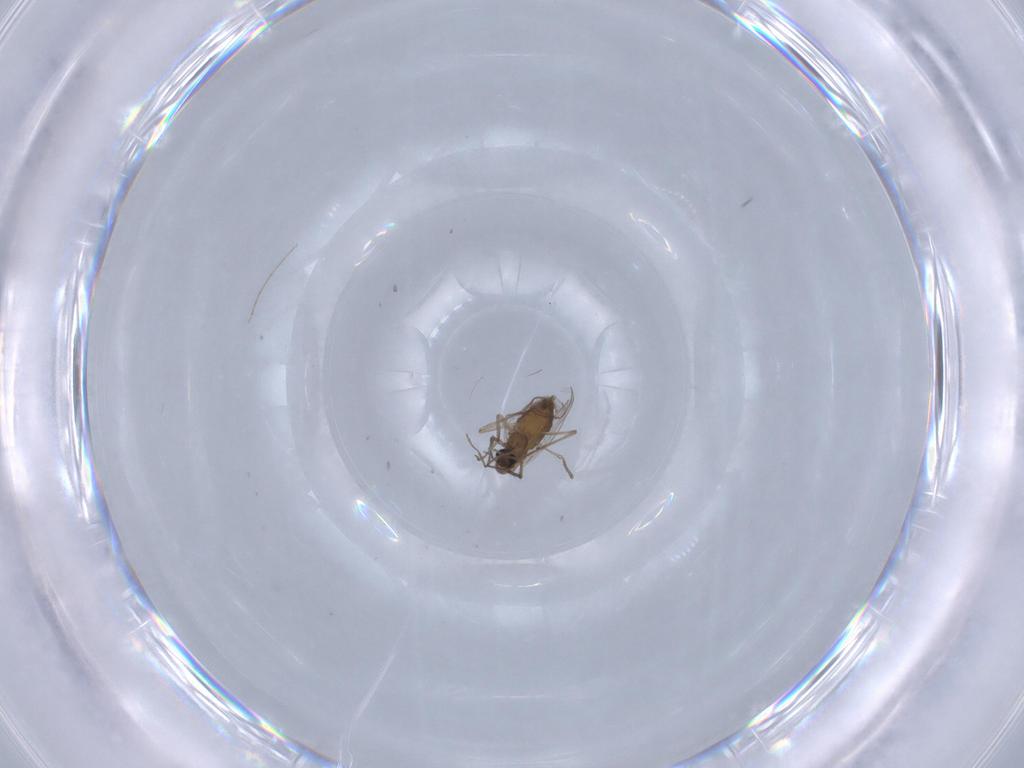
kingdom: Animalia
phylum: Arthropoda
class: Insecta
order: Diptera
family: Chironomidae
